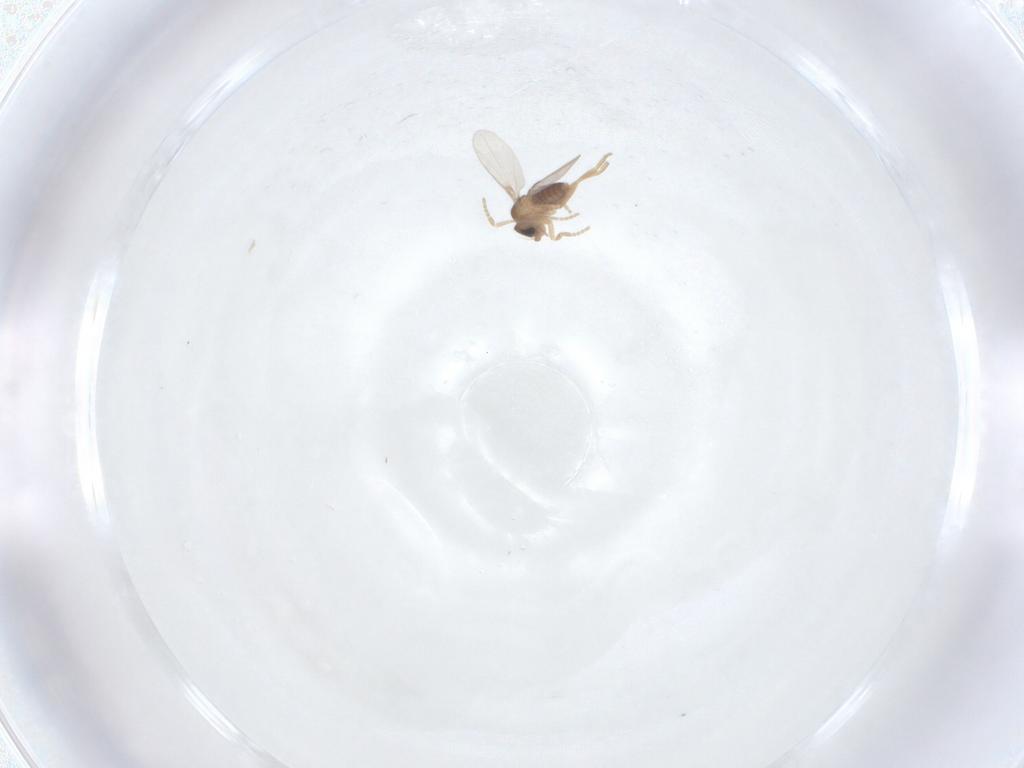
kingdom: Animalia
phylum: Arthropoda
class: Insecta
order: Diptera
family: Phoridae
